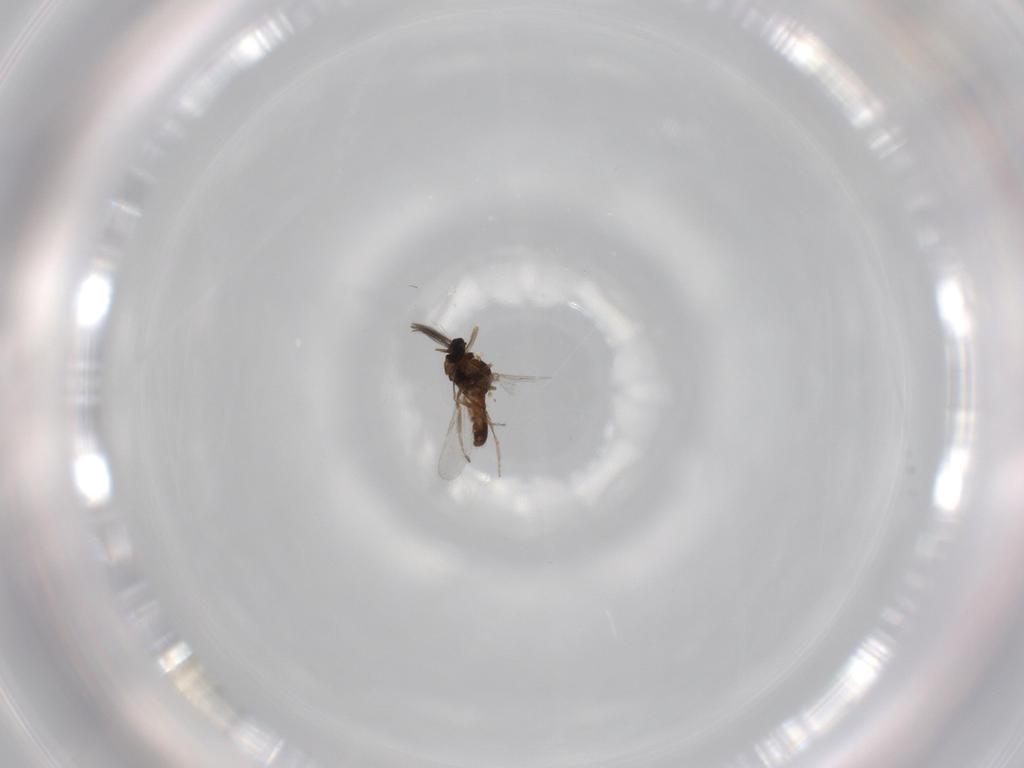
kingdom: Animalia
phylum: Arthropoda
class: Insecta
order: Diptera
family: Ceratopogonidae
